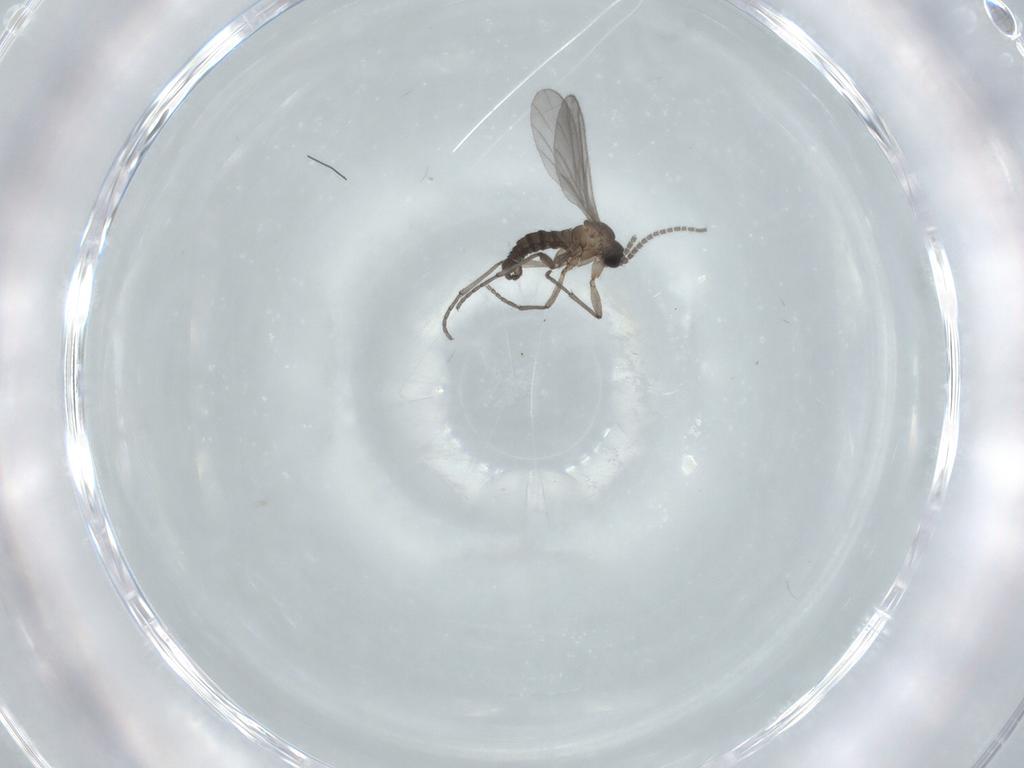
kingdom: Animalia
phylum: Arthropoda
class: Insecta
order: Diptera
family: Sciaridae
